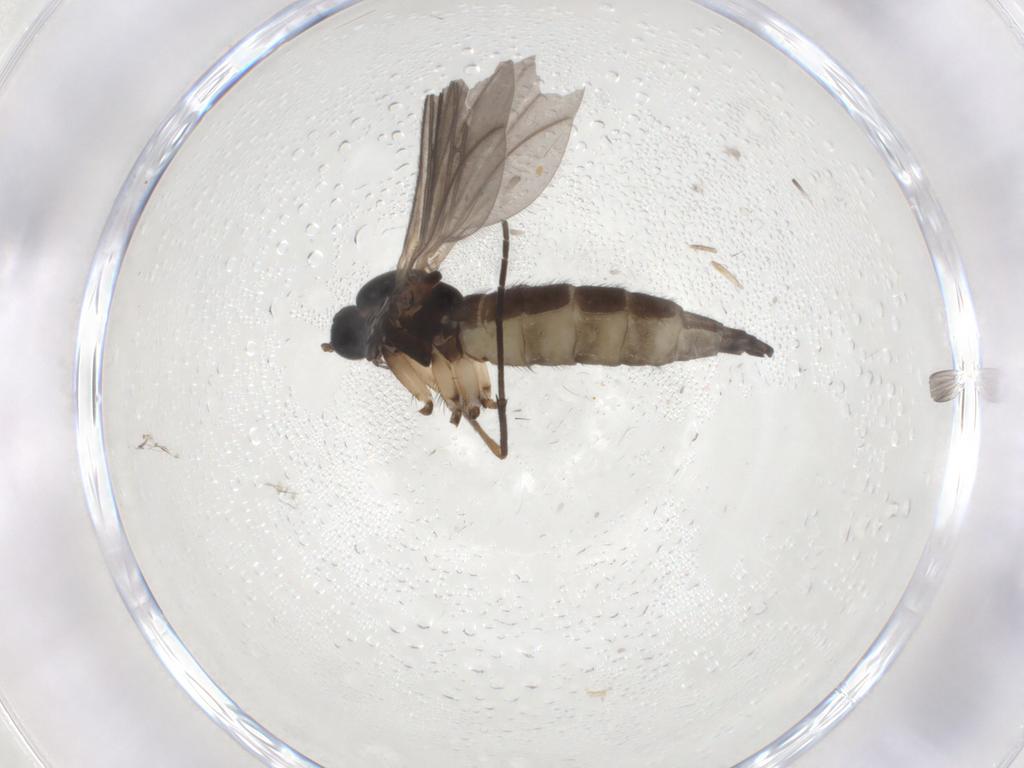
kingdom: Animalia
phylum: Arthropoda
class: Insecta
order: Diptera
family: Sciaridae
